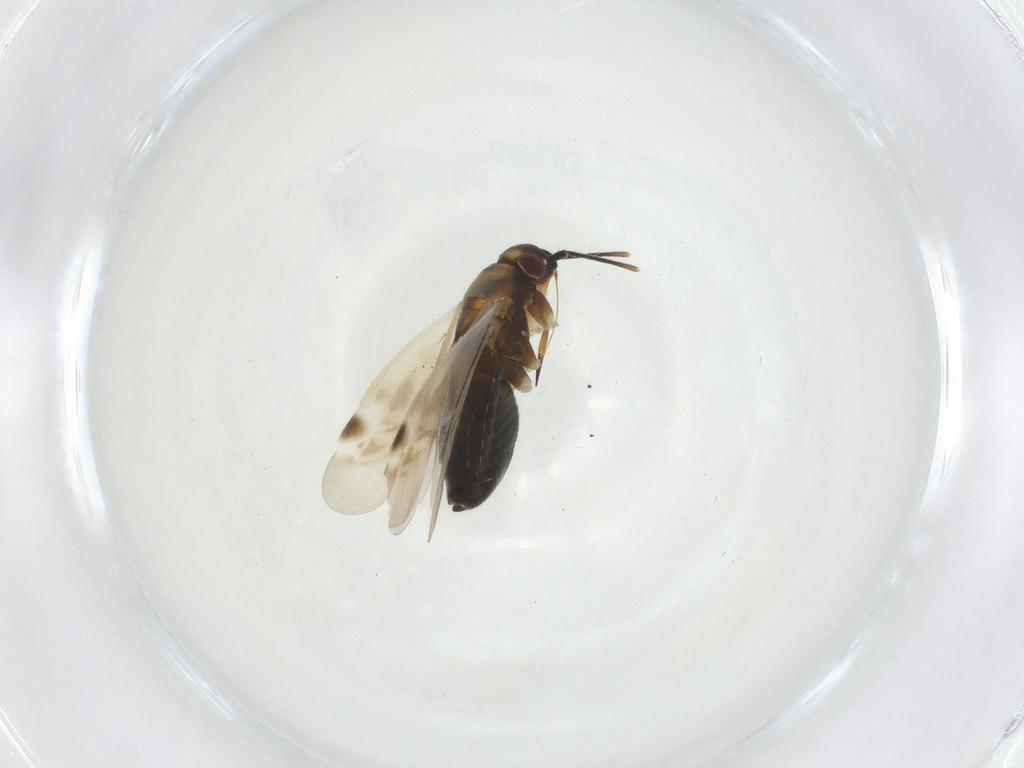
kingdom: Animalia
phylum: Arthropoda
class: Insecta
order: Hemiptera
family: Miridae
